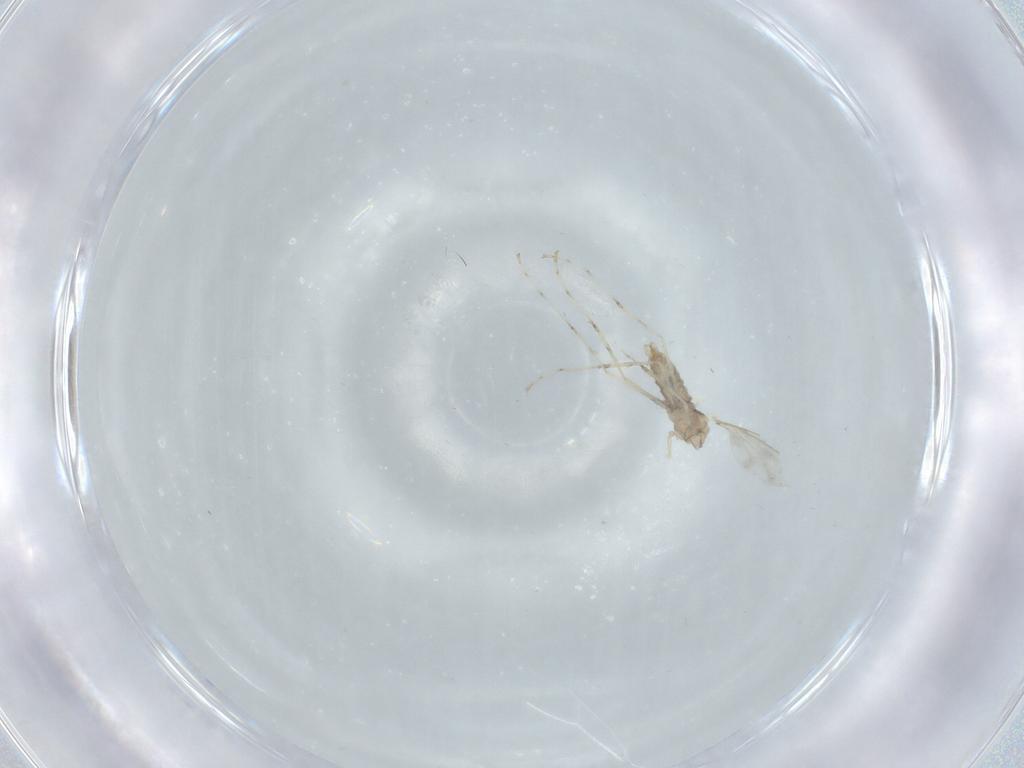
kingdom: Animalia
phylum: Arthropoda
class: Insecta
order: Diptera
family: Cecidomyiidae
